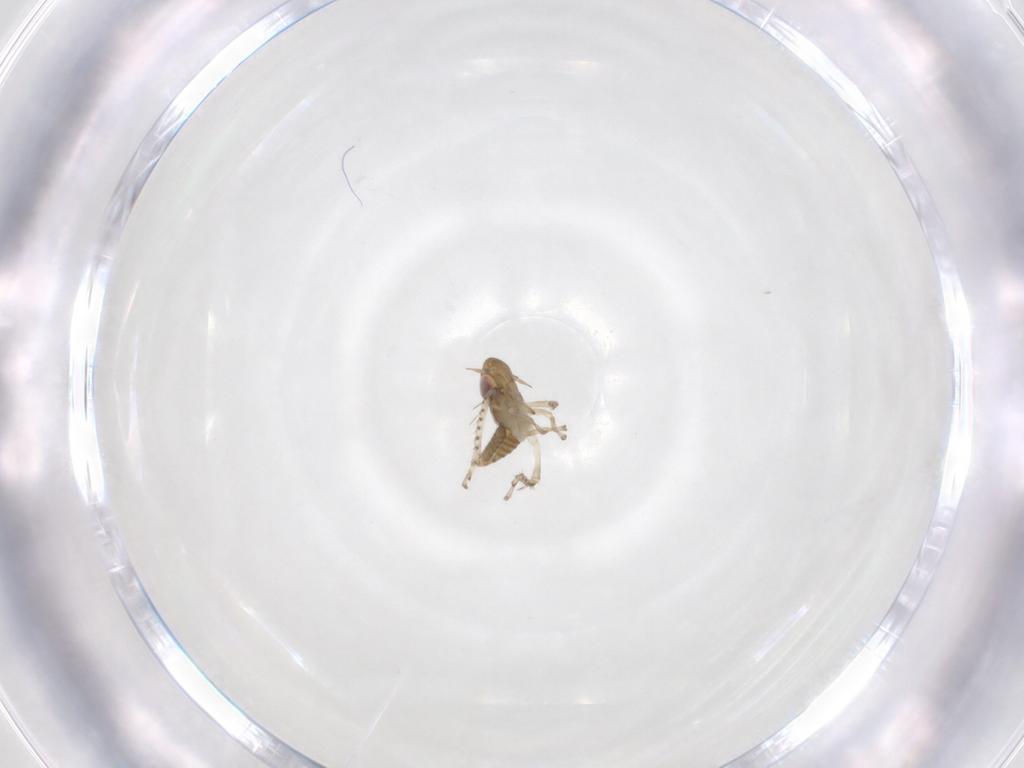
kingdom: Animalia
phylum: Arthropoda
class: Insecta
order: Hemiptera
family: Cicadellidae
